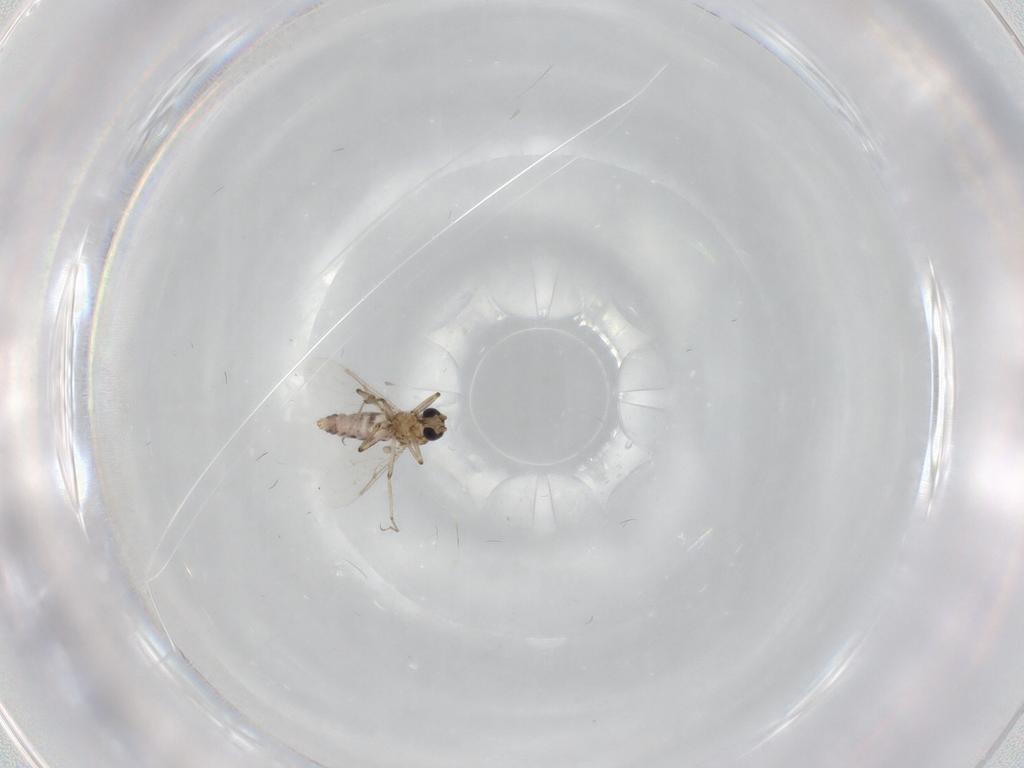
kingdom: Animalia
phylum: Arthropoda
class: Insecta
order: Diptera
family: Ceratopogonidae
